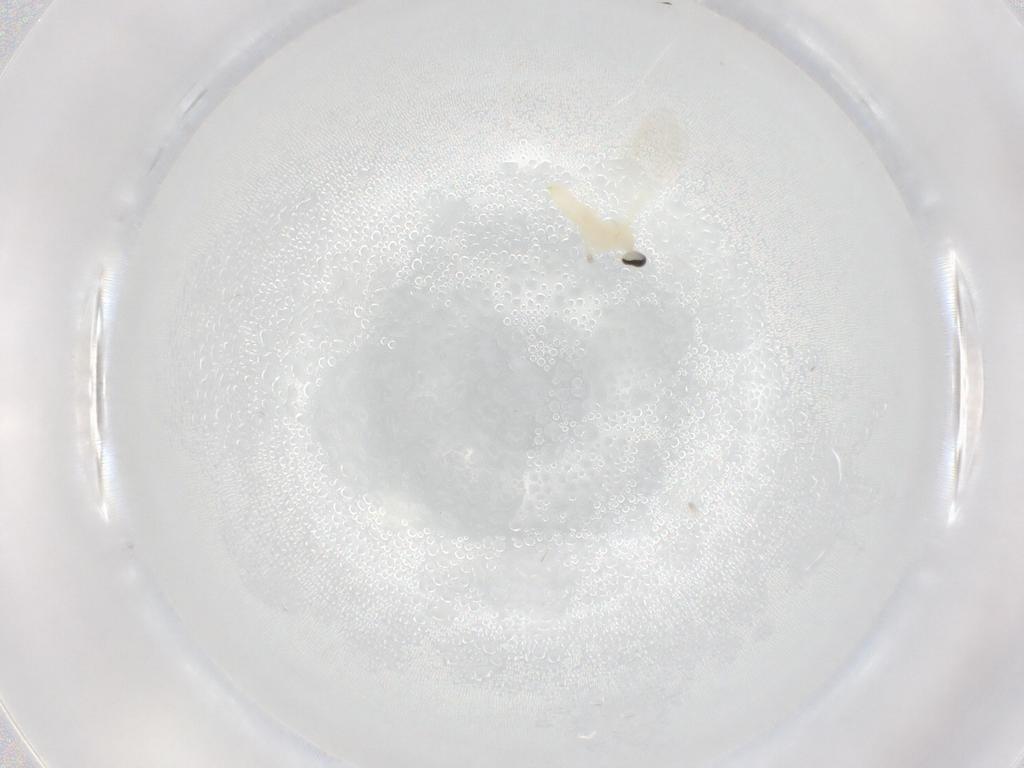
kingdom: Animalia
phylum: Arthropoda
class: Insecta
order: Diptera
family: Cecidomyiidae
